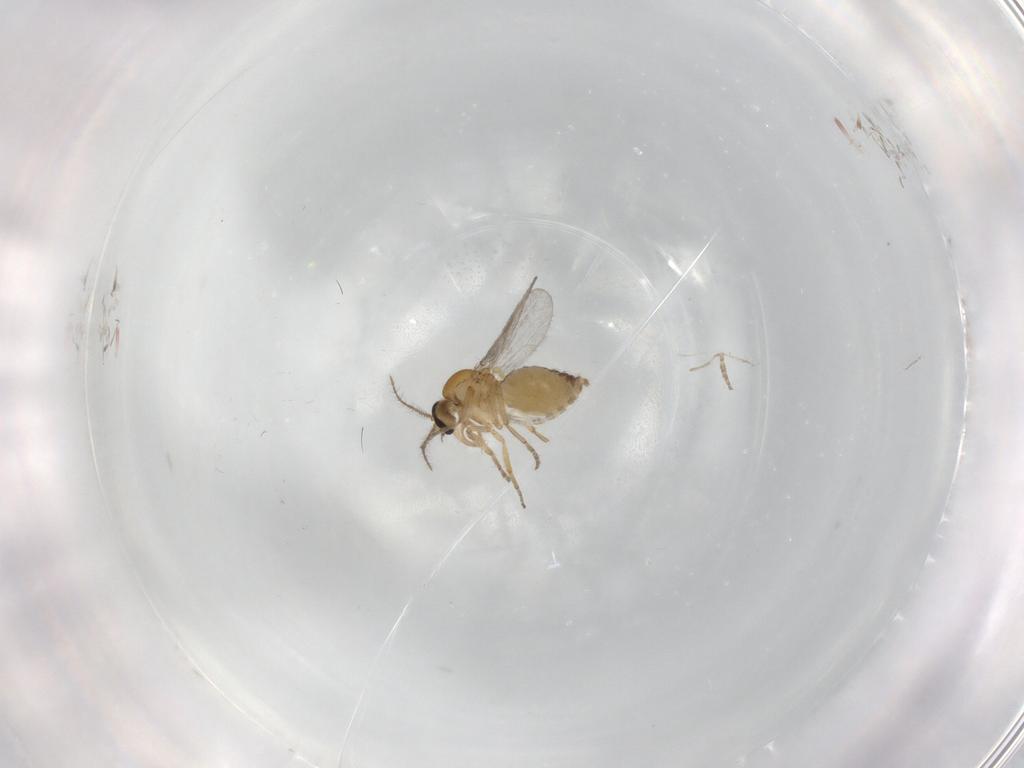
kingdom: Animalia
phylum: Arthropoda
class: Insecta
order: Diptera
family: Ceratopogonidae
